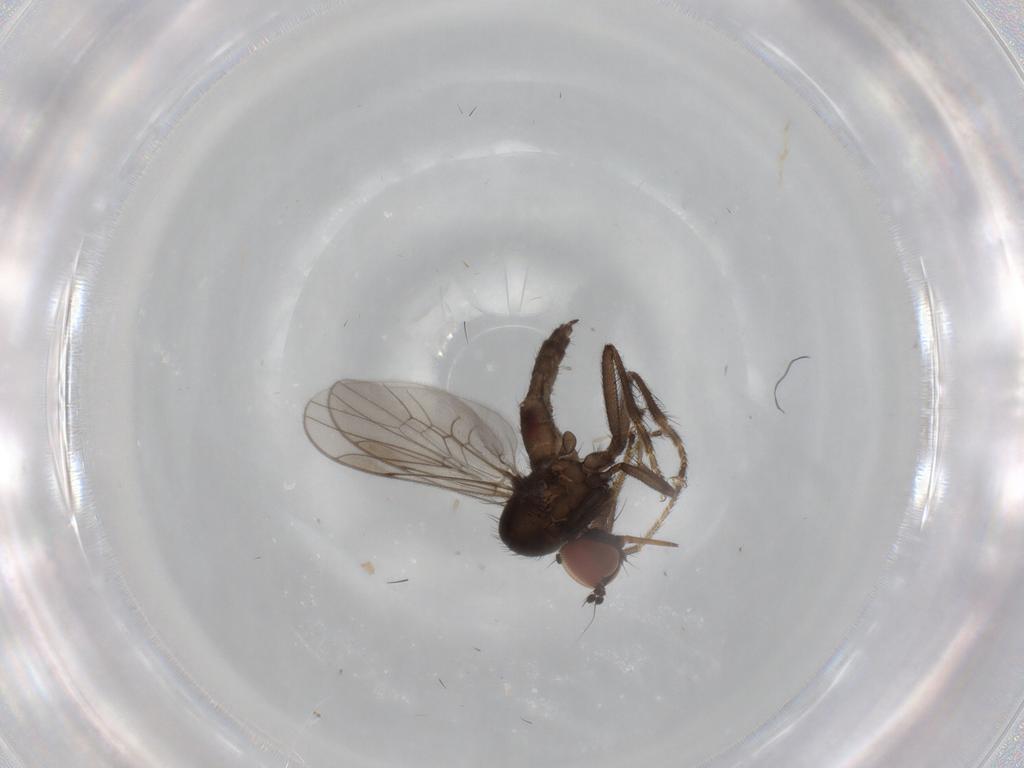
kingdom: Animalia
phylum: Arthropoda
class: Insecta
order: Diptera
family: Hybotidae
